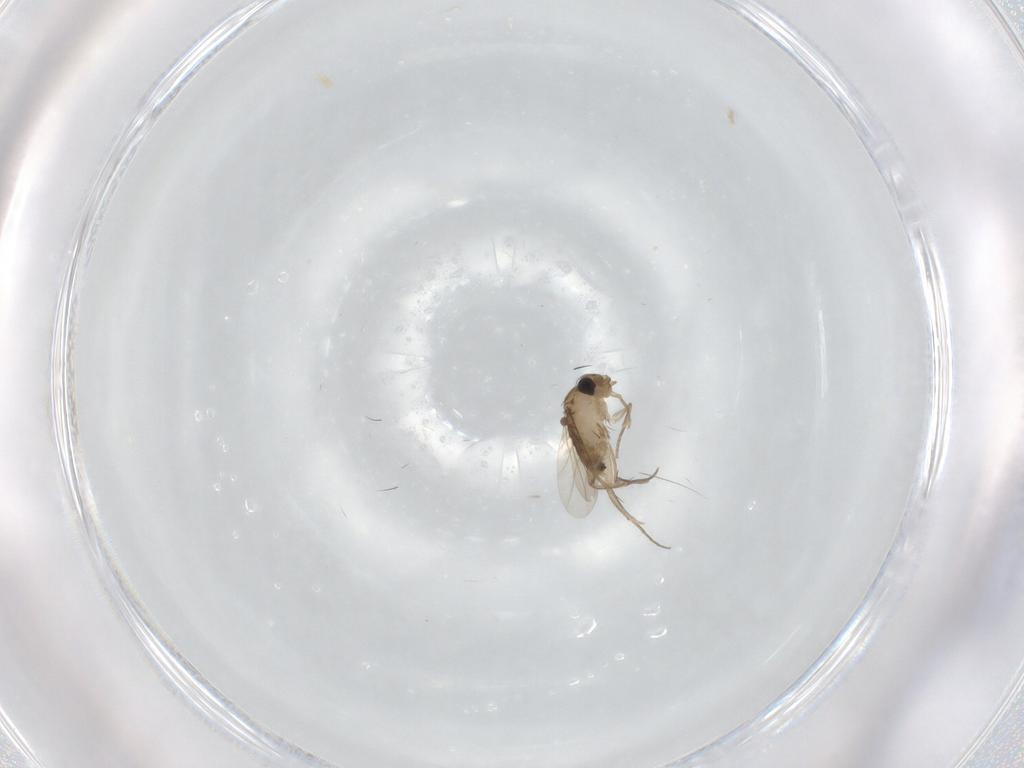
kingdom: Animalia
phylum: Arthropoda
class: Insecta
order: Diptera
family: Phoridae
